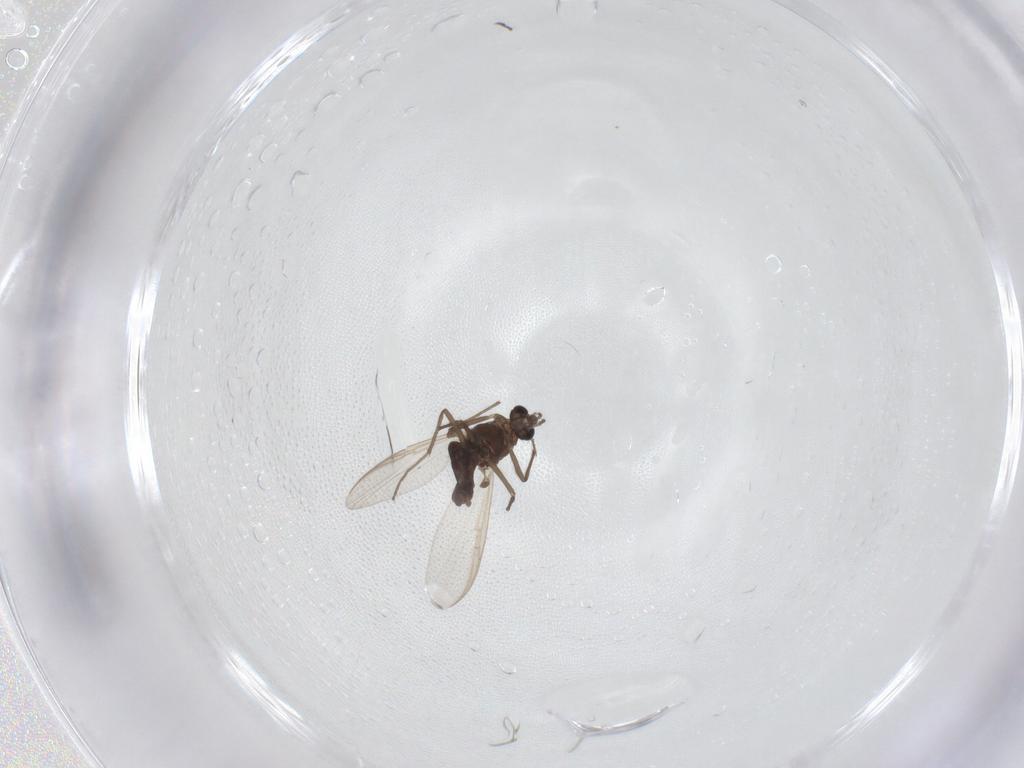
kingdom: Animalia
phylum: Arthropoda
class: Insecta
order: Diptera
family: Chironomidae
